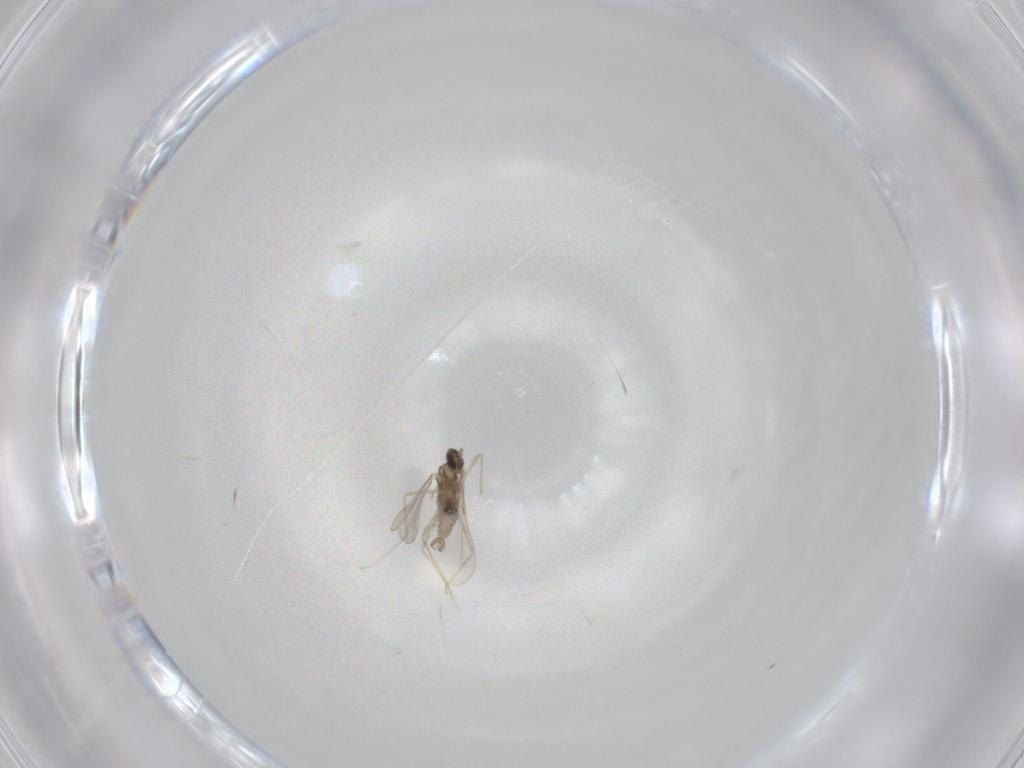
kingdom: Animalia
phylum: Arthropoda
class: Insecta
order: Diptera
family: Cecidomyiidae
